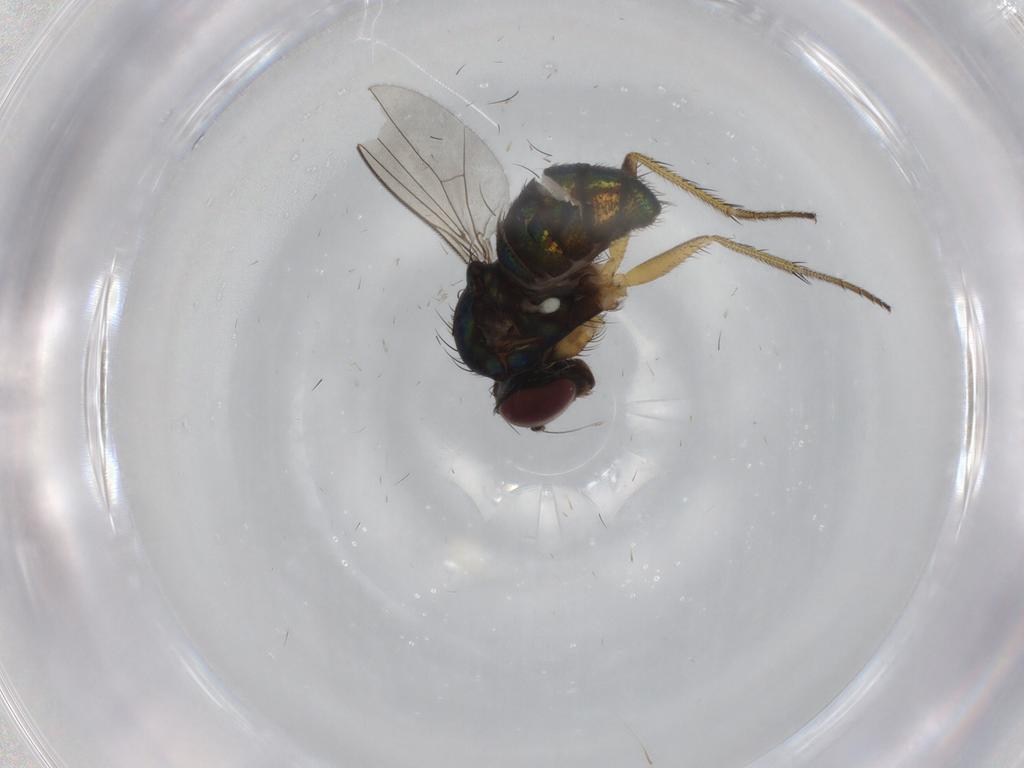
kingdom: Animalia
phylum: Arthropoda
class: Insecta
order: Diptera
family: Dolichopodidae
